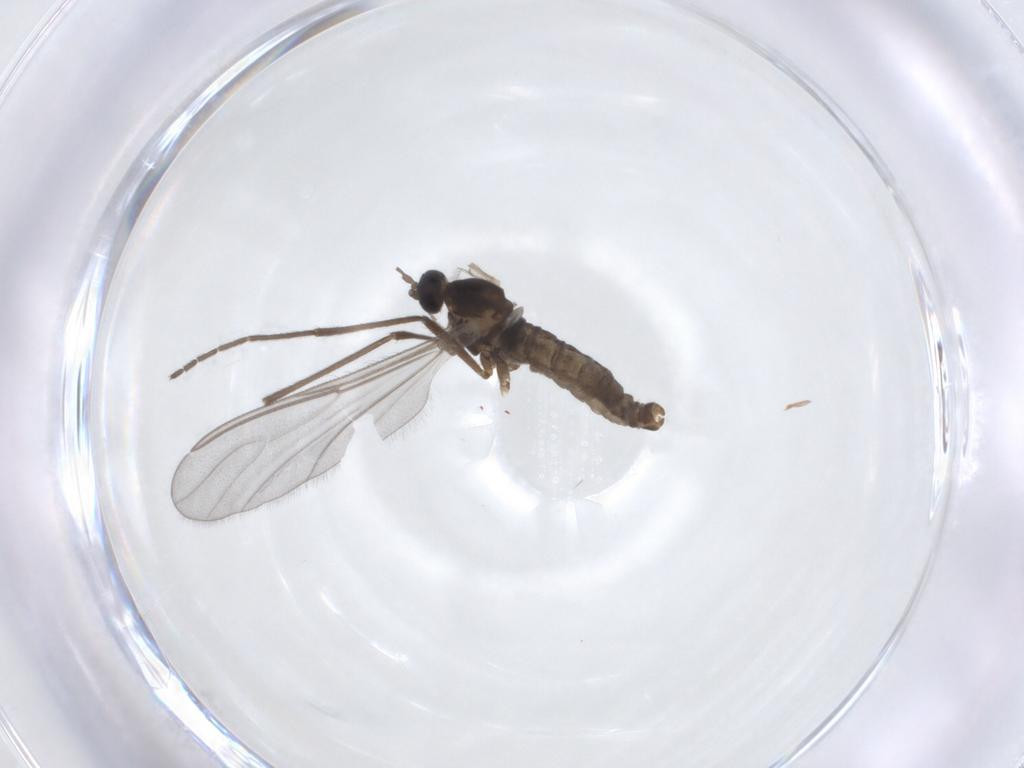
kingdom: Animalia
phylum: Arthropoda
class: Insecta
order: Diptera
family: Cecidomyiidae
